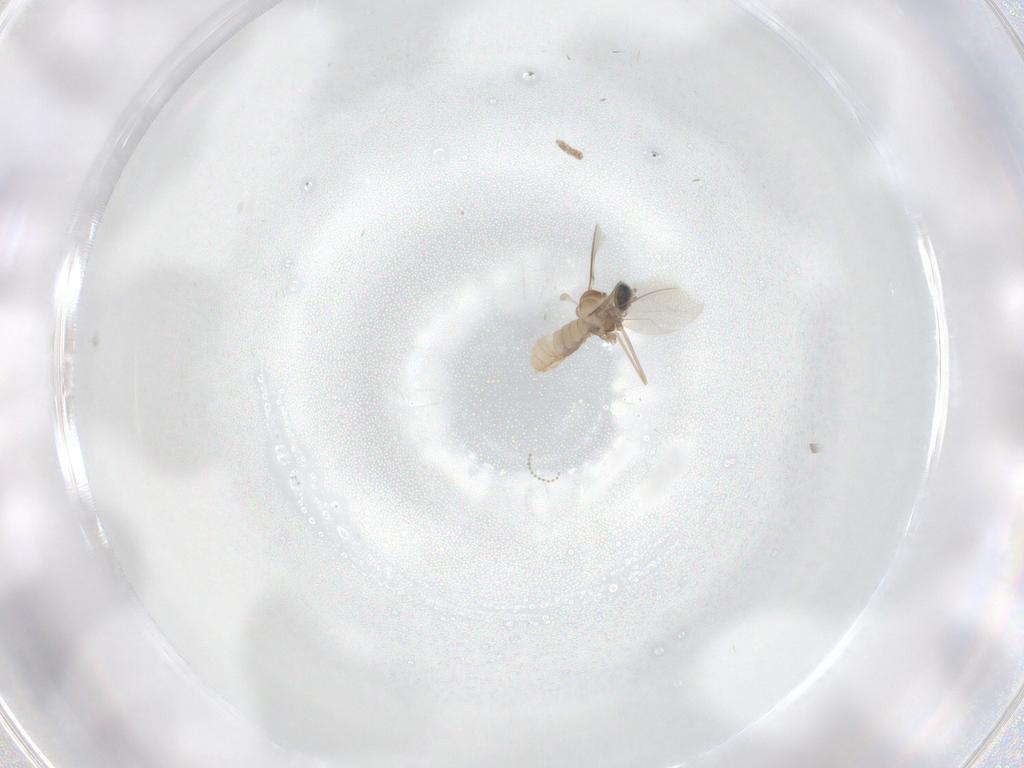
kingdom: Animalia
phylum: Arthropoda
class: Insecta
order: Diptera
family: Cecidomyiidae
